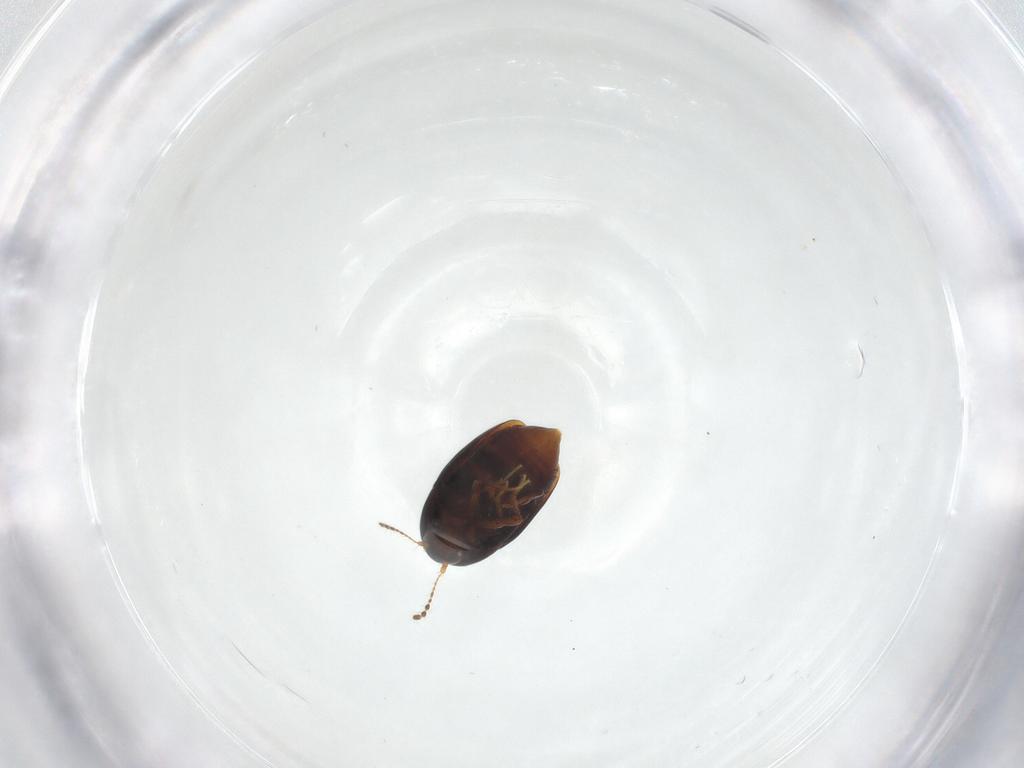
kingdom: Animalia
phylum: Arthropoda
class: Insecta
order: Coleoptera
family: Staphylinidae
